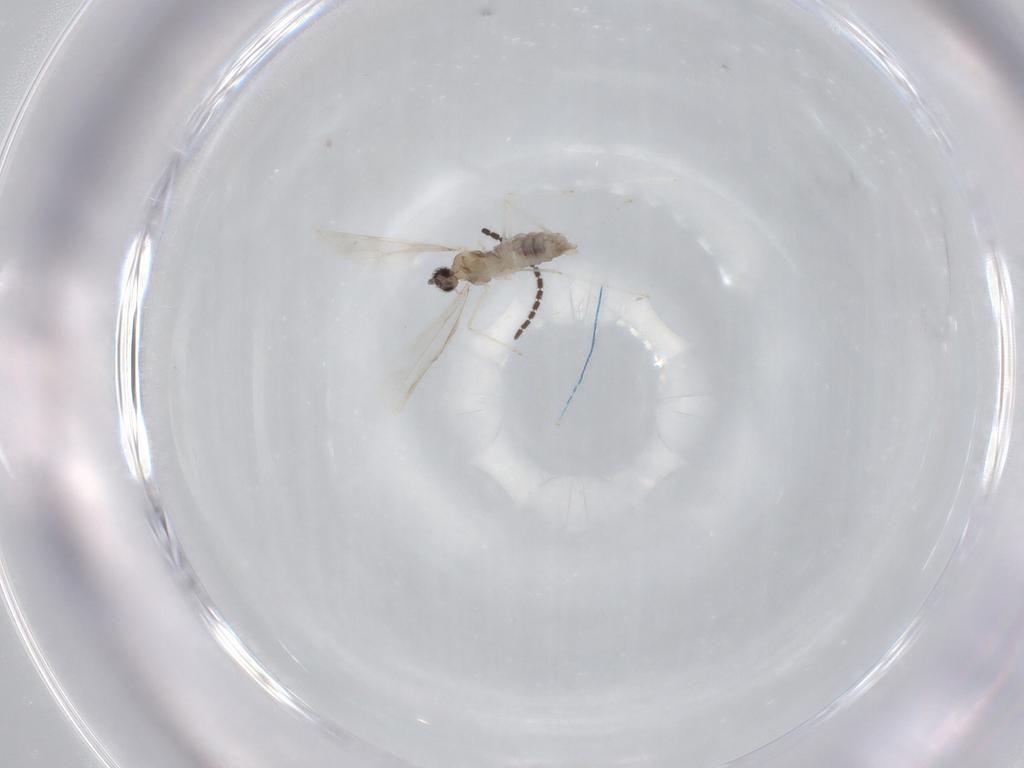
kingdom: Animalia
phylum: Arthropoda
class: Insecta
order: Diptera
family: Cecidomyiidae
